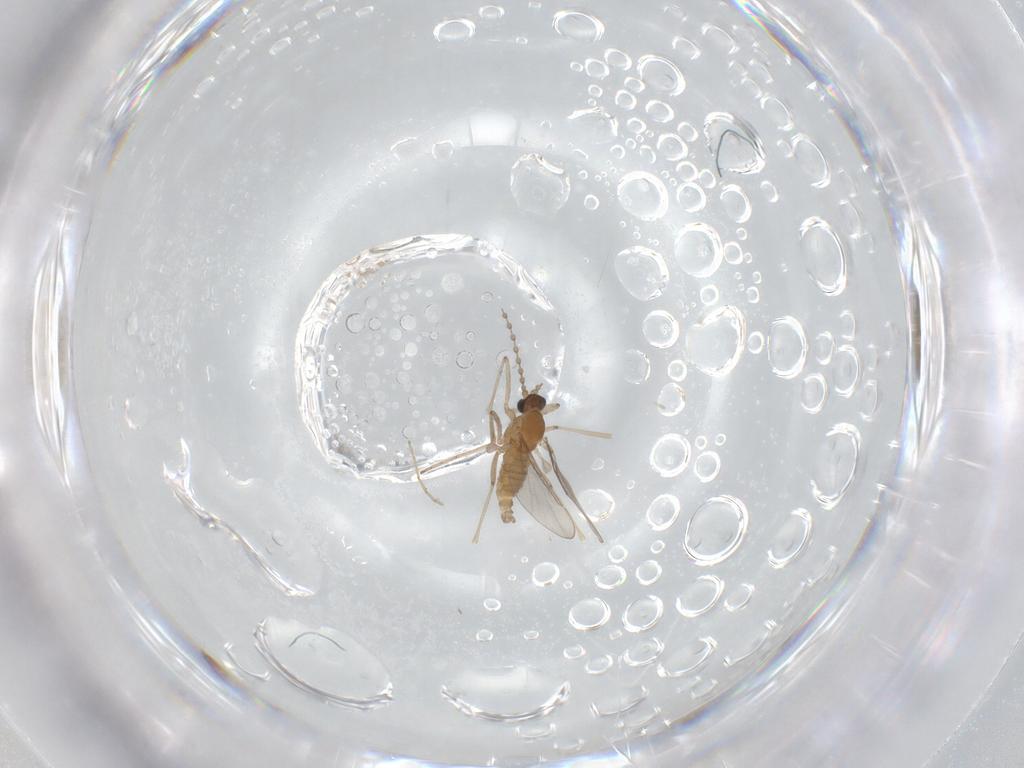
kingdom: Animalia
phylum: Arthropoda
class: Insecta
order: Diptera
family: Cecidomyiidae
